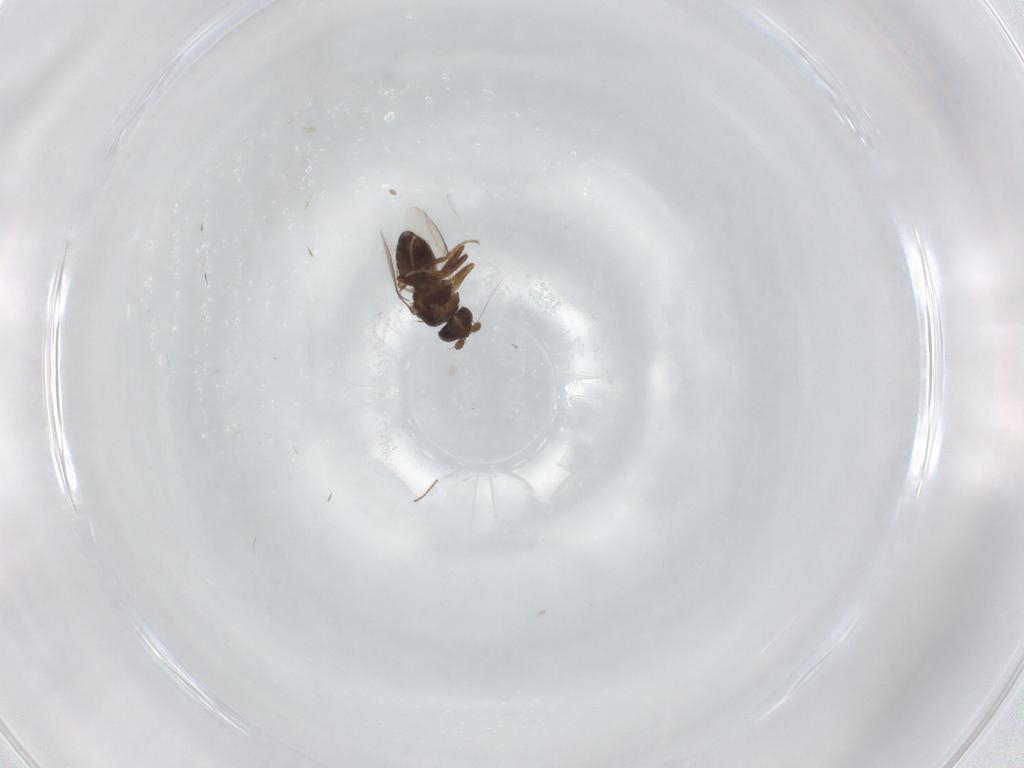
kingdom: Animalia
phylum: Arthropoda
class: Insecta
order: Diptera
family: Sphaeroceridae
